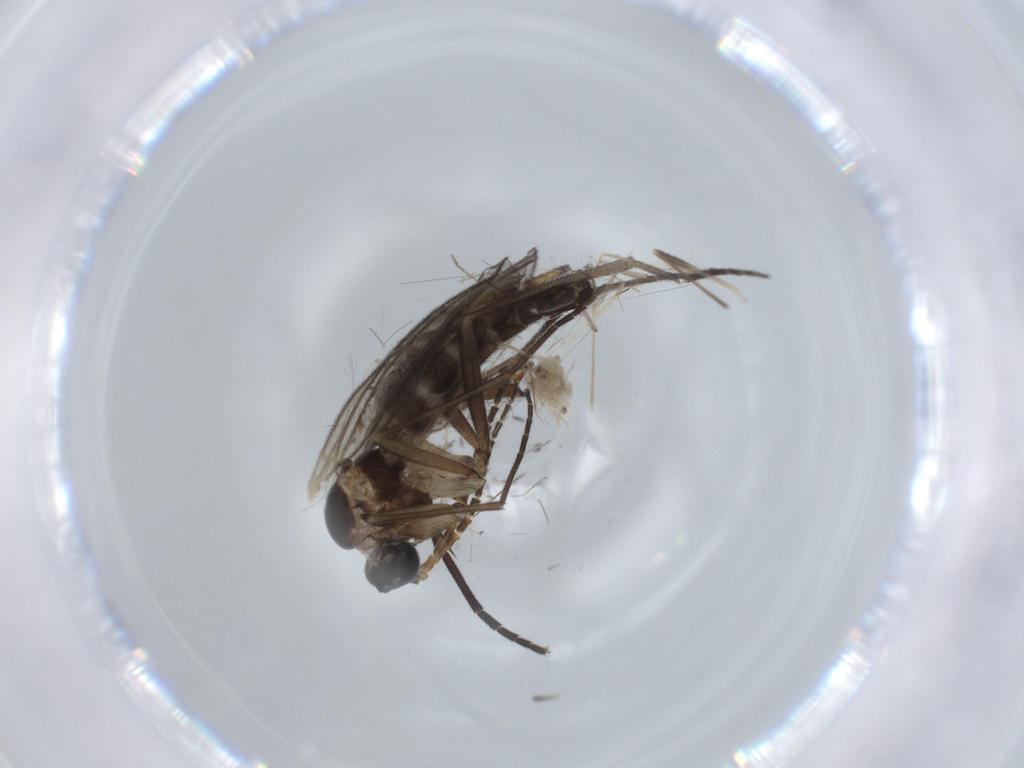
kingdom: Animalia
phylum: Arthropoda
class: Insecta
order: Diptera
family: Sciaridae
